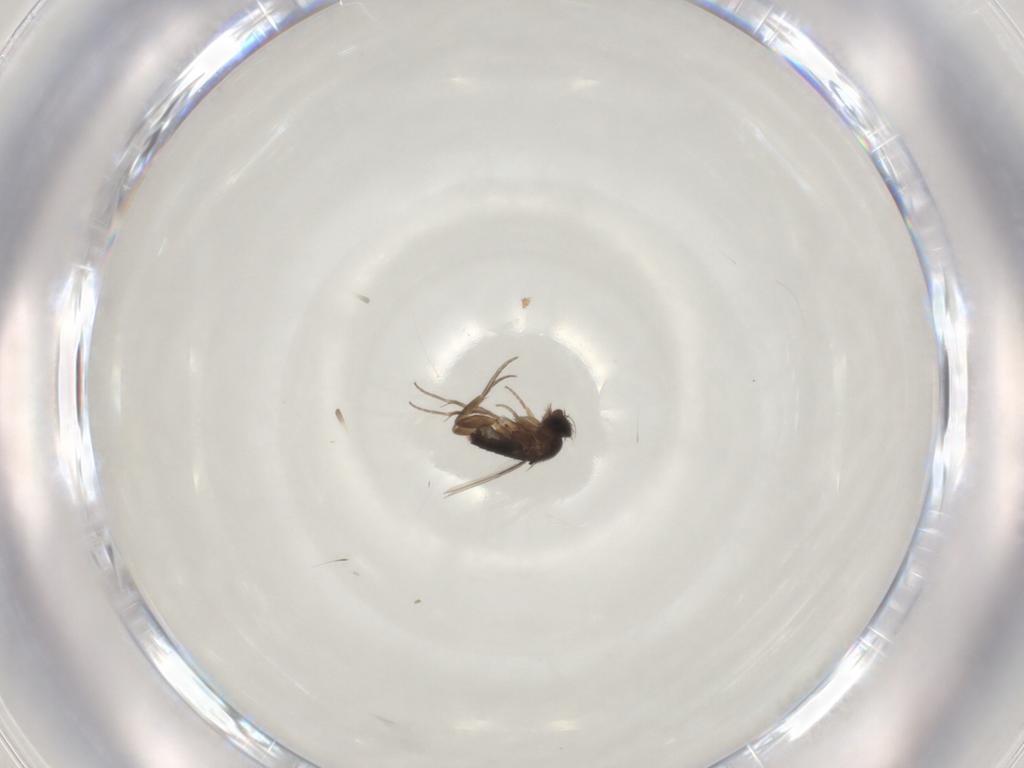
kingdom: Animalia
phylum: Arthropoda
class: Insecta
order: Diptera
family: Phoridae
